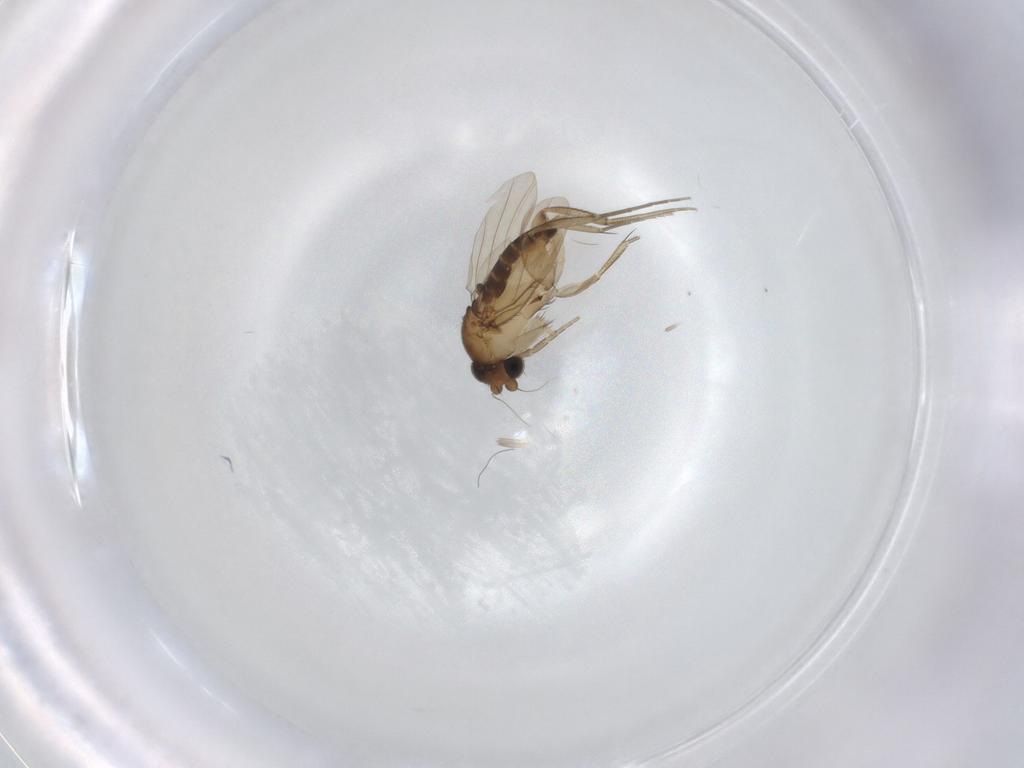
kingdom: Animalia
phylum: Arthropoda
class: Insecta
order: Diptera
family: Phoridae
